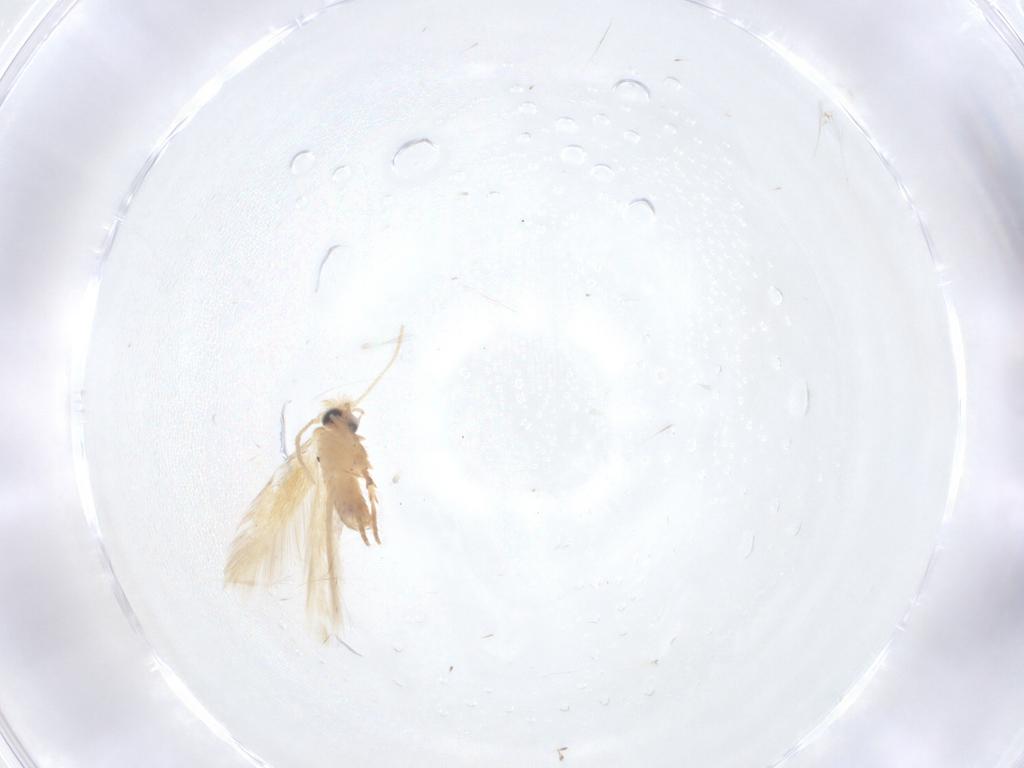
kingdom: Animalia
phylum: Arthropoda
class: Insecta
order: Lepidoptera
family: Nepticulidae
